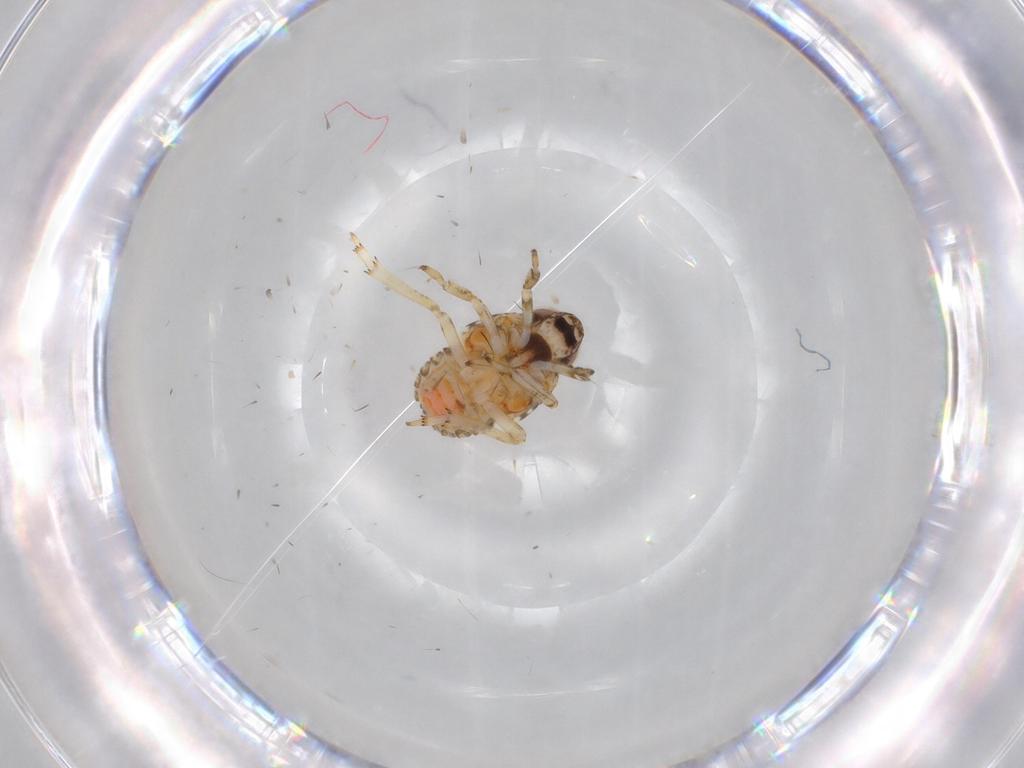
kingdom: Animalia
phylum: Arthropoda
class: Insecta
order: Hemiptera
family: Issidae
